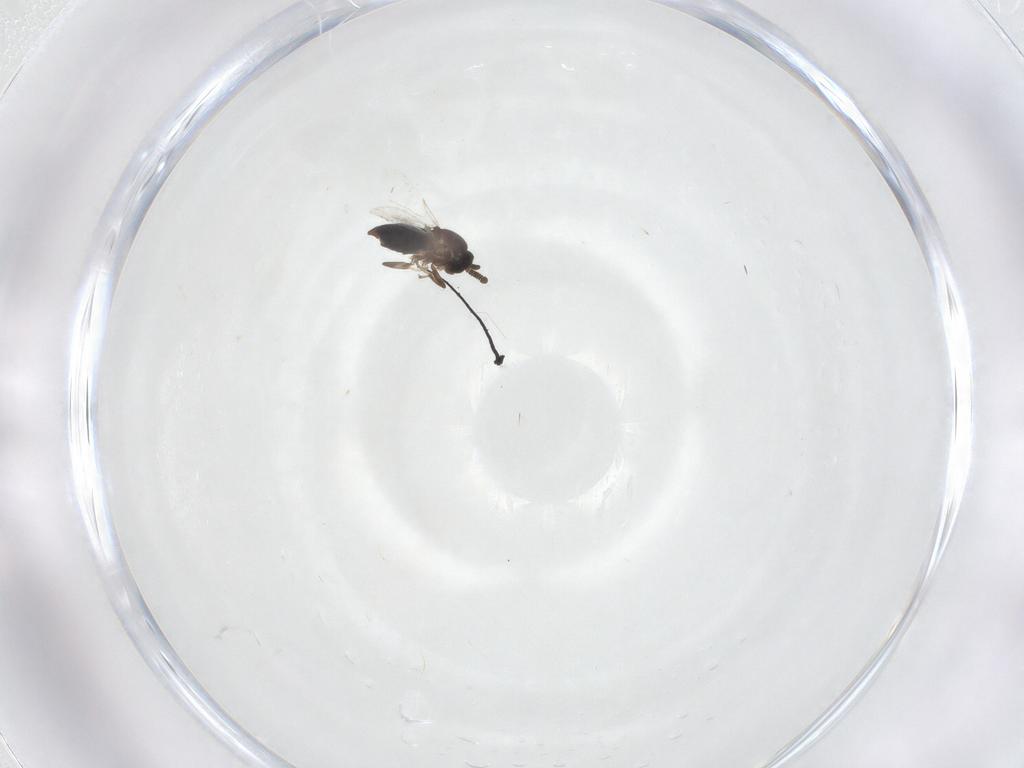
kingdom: Animalia
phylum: Arthropoda
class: Insecta
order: Diptera
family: Scatopsidae
